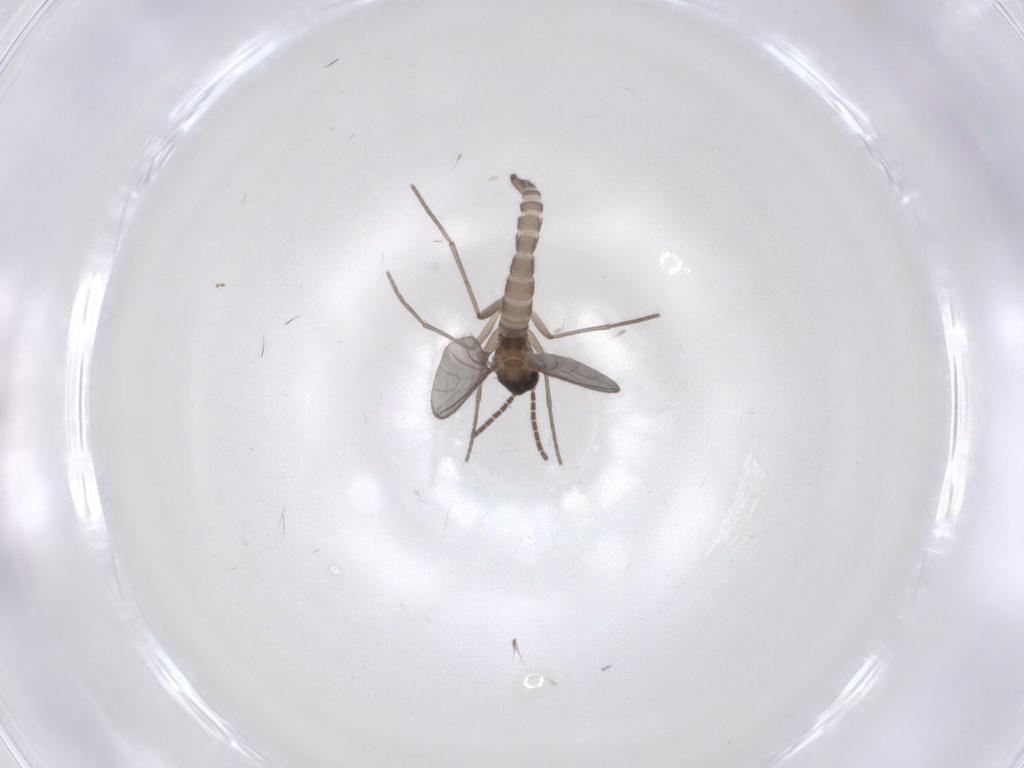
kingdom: Animalia
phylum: Arthropoda
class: Insecta
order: Diptera
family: Sciaridae
